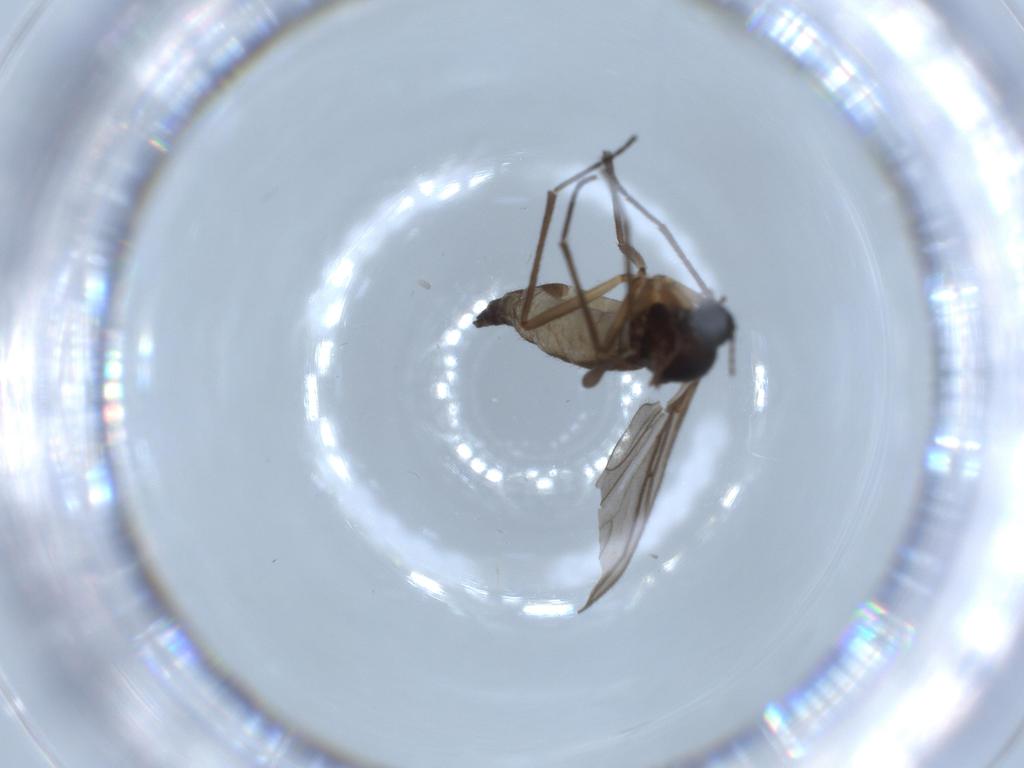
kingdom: Animalia
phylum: Arthropoda
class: Insecta
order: Diptera
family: Sciaridae
